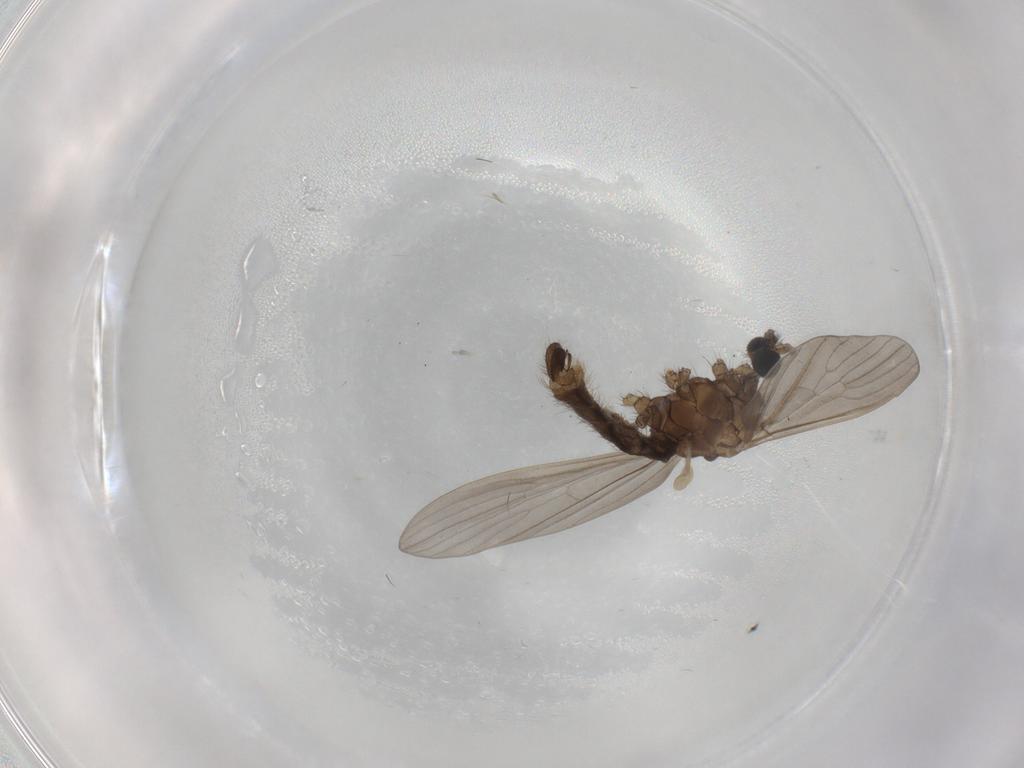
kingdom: Animalia
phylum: Arthropoda
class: Insecta
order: Diptera
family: Limoniidae
